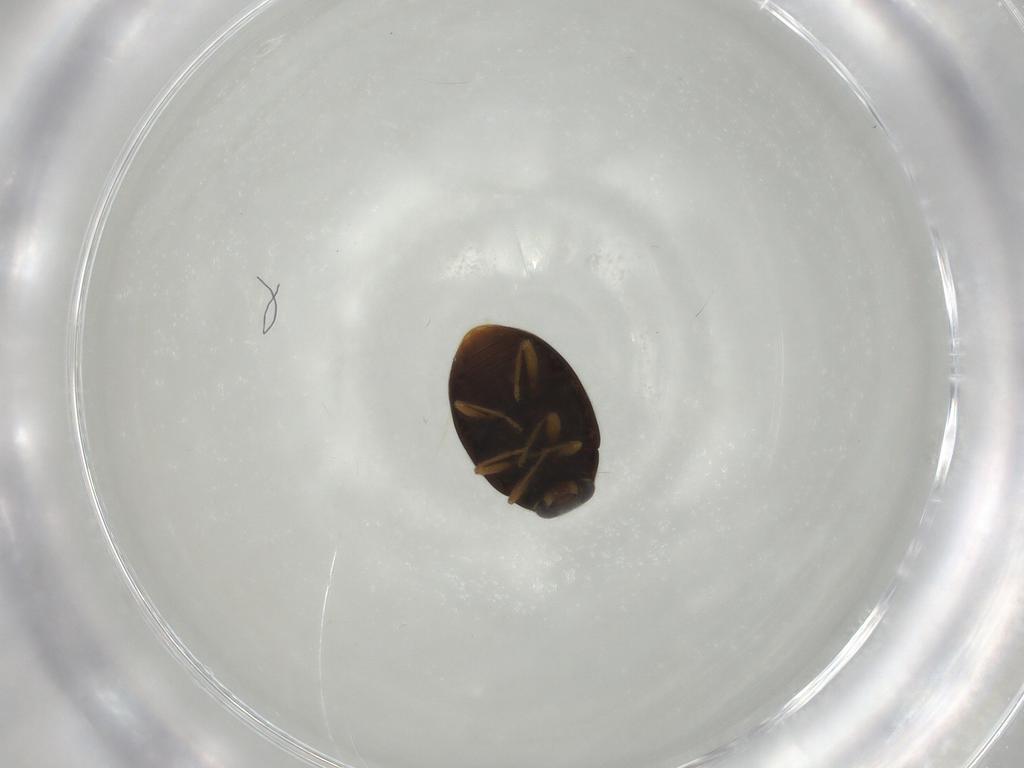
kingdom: Animalia
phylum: Arthropoda
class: Insecta
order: Coleoptera
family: Coccinellidae
